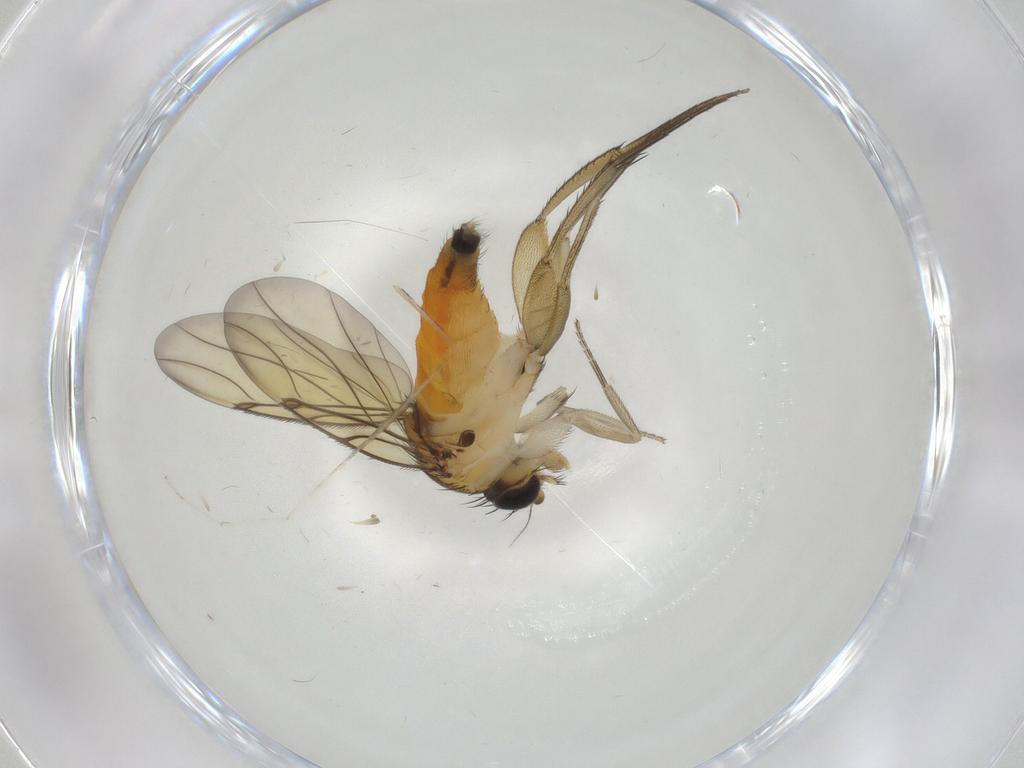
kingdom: Animalia
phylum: Arthropoda
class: Insecta
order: Diptera
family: Phoridae
